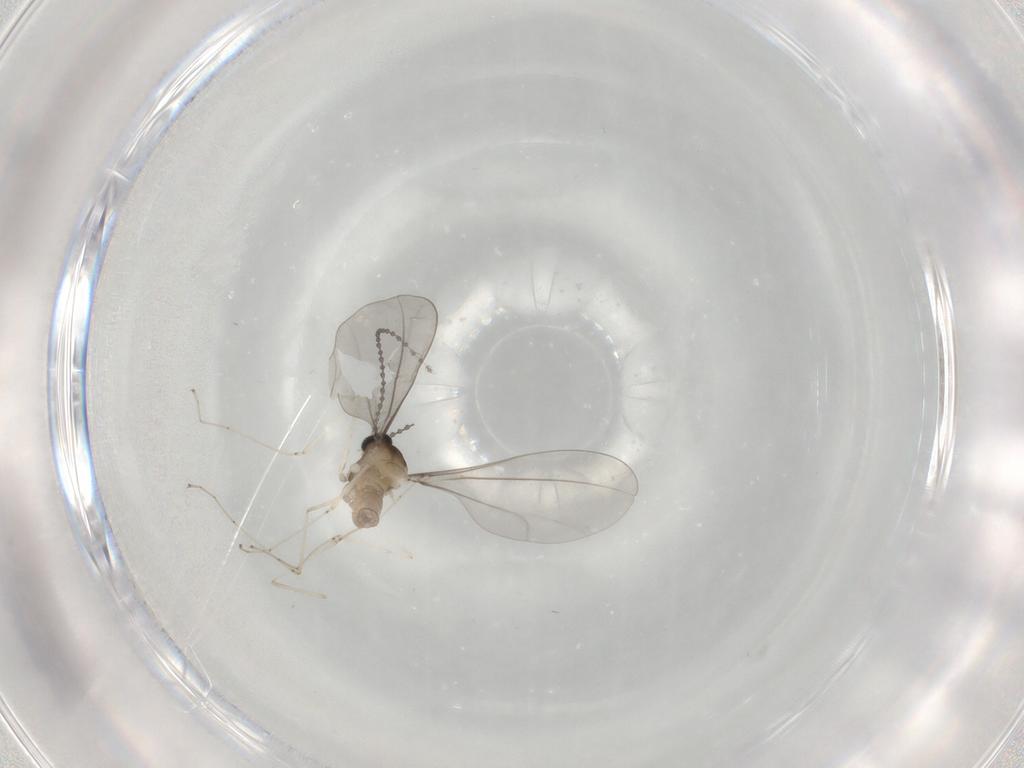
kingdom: Animalia
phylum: Arthropoda
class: Insecta
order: Diptera
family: Cecidomyiidae
